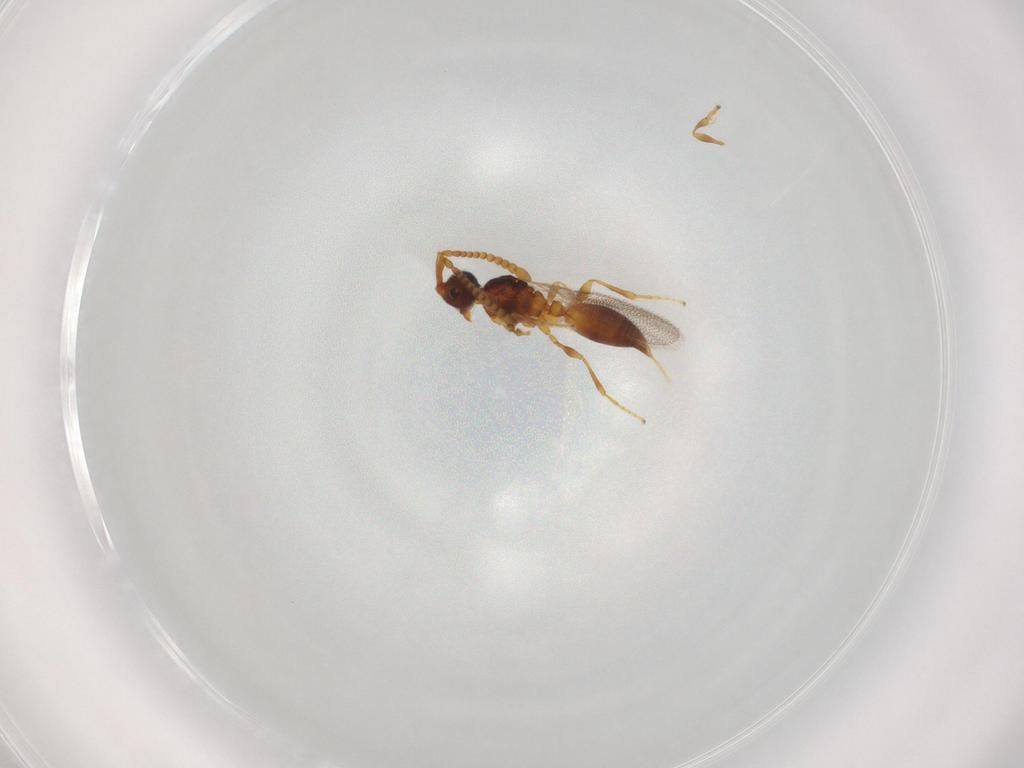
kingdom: Animalia
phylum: Arthropoda
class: Insecta
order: Hymenoptera
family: Diapriidae
